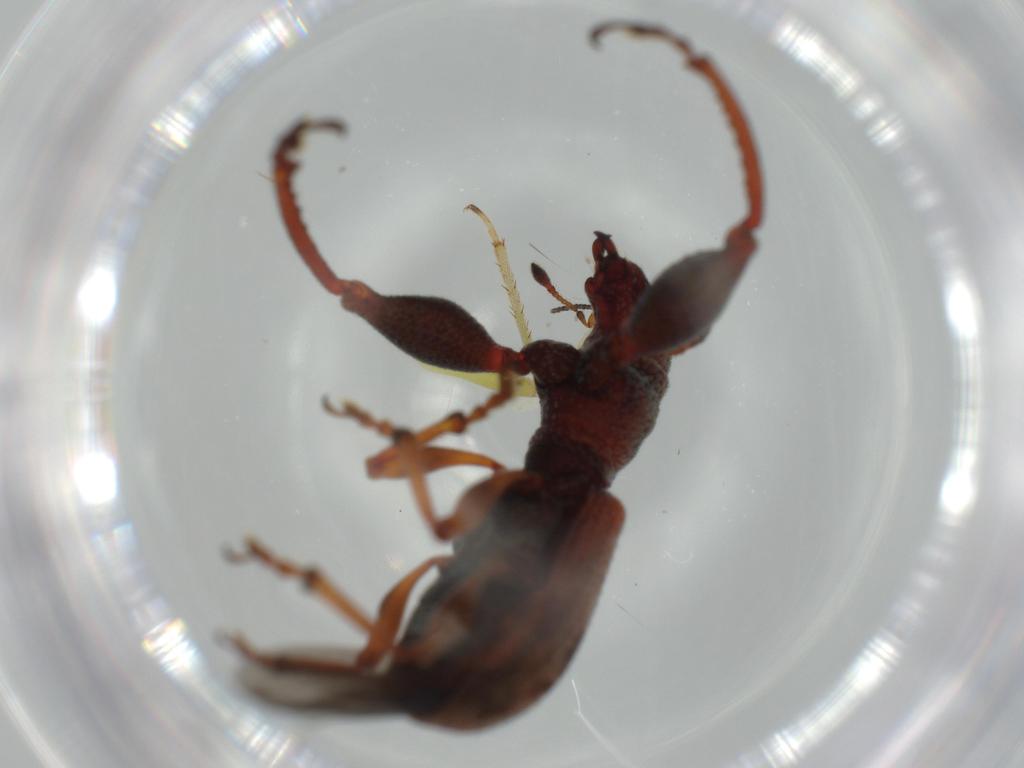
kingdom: Animalia
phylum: Arthropoda
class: Insecta
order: Coleoptera
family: Curculionidae
